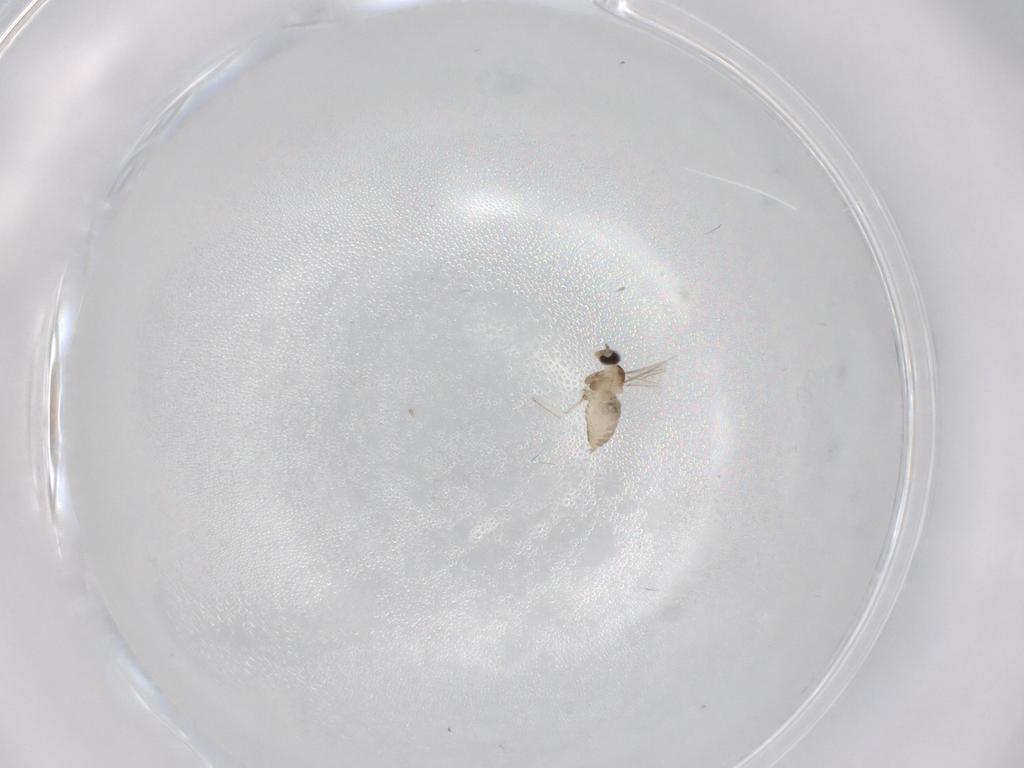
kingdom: Animalia
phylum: Arthropoda
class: Insecta
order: Diptera
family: Cecidomyiidae
